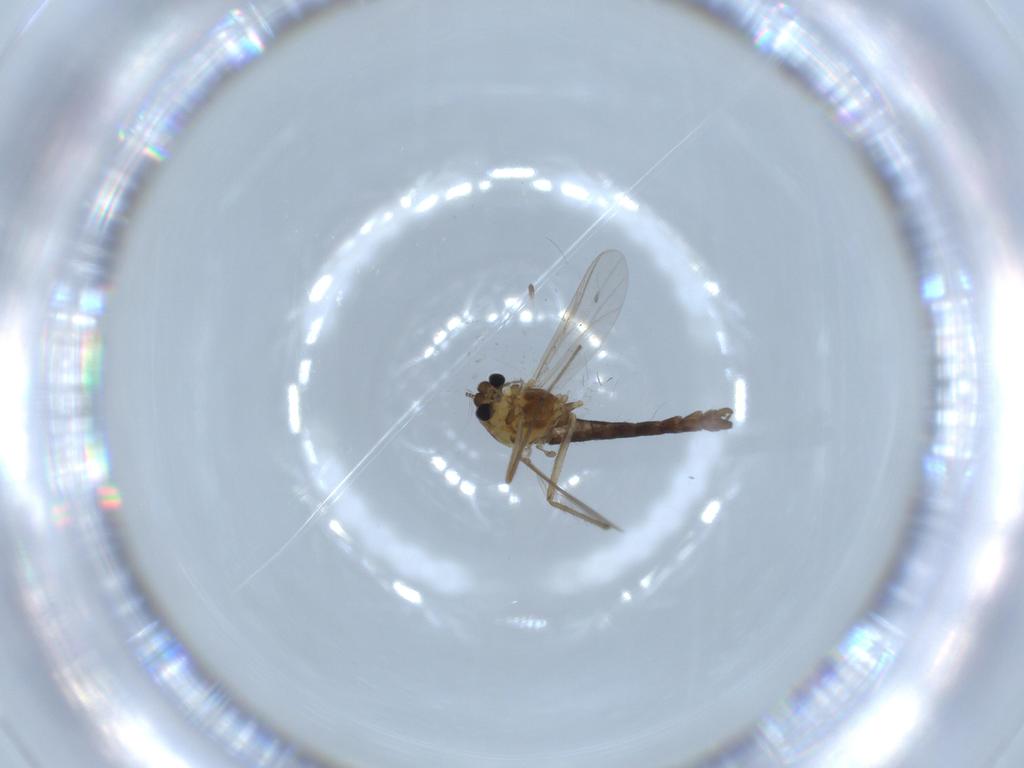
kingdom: Animalia
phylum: Arthropoda
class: Insecta
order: Diptera
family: Chironomidae
